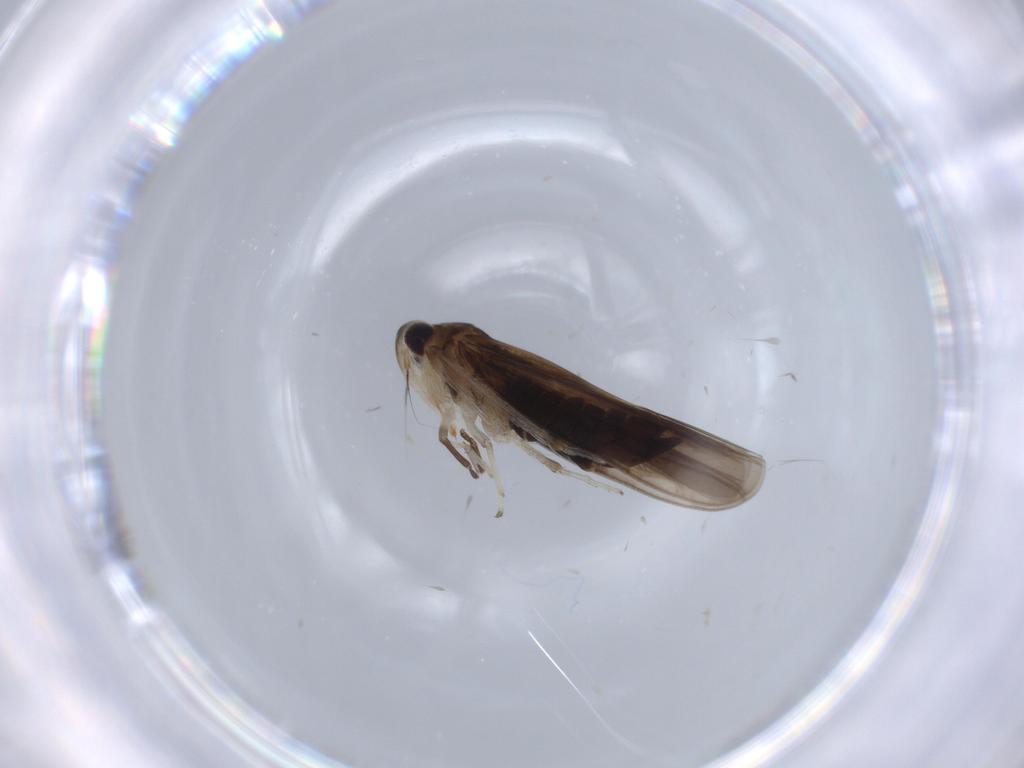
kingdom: Animalia
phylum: Arthropoda
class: Insecta
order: Hemiptera
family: Cicadellidae
